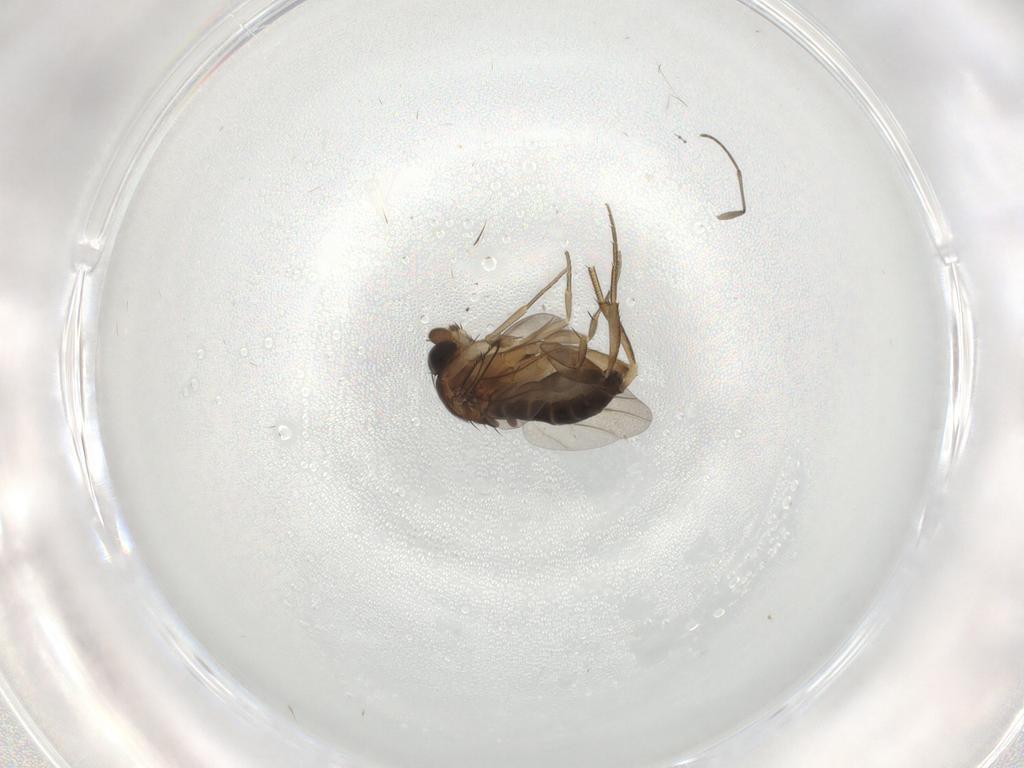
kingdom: Animalia
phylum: Arthropoda
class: Insecta
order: Diptera
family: Phoridae
